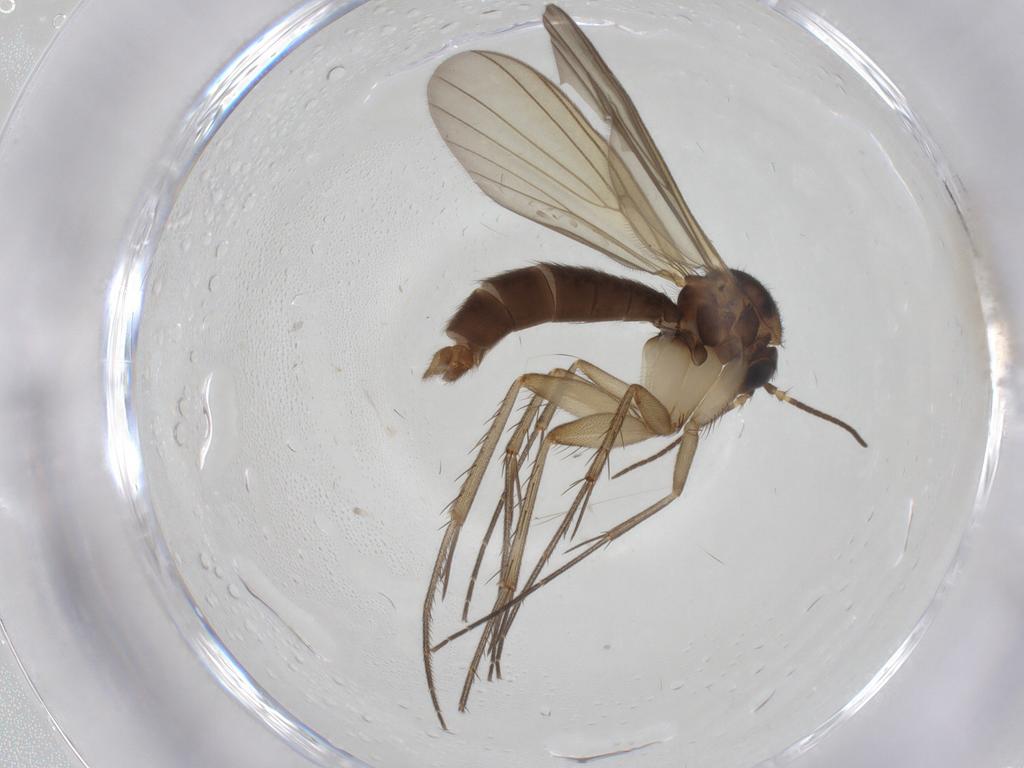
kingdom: Animalia
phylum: Arthropoda
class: Insecta
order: Diptera
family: Mycetophilidae
